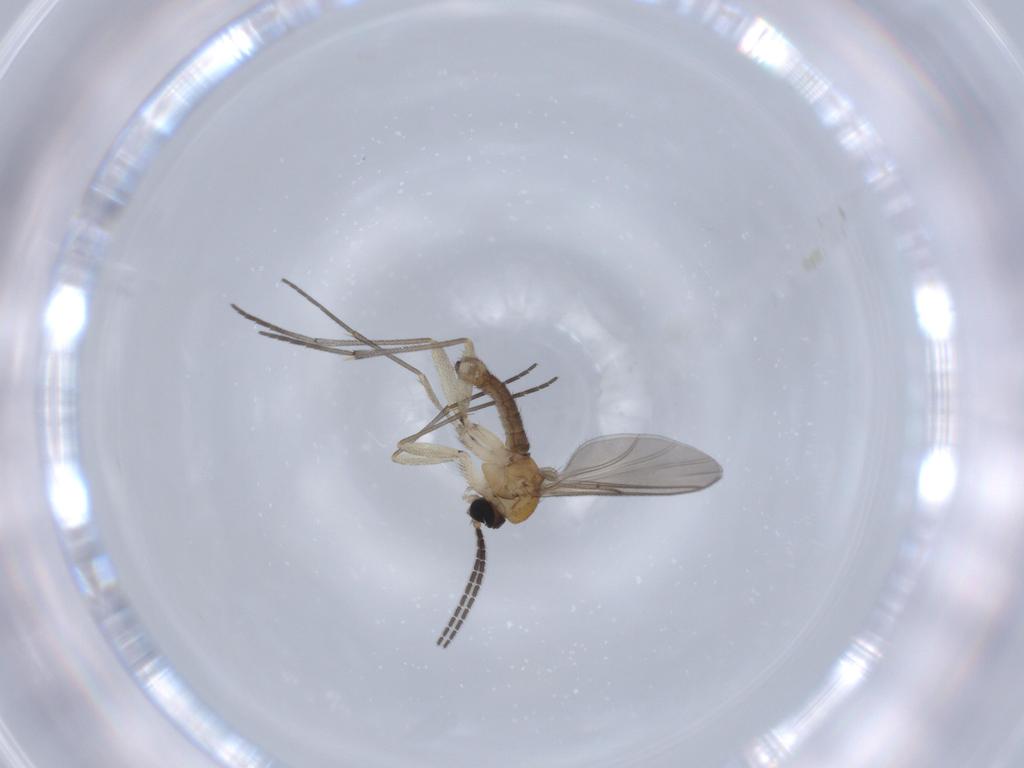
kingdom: Animalia
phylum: Arthropoda
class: Insecta
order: Diptera
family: Sciaridae
